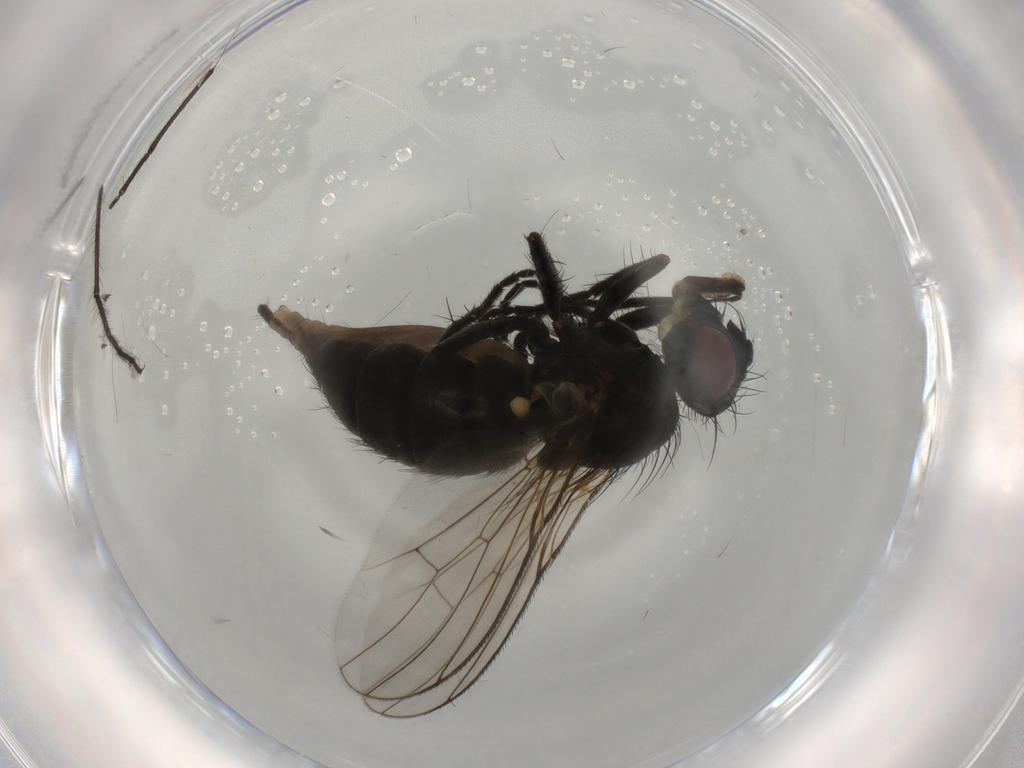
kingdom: Animalia
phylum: Arthropoda
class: Insecta
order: Diptera
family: Muscidae
